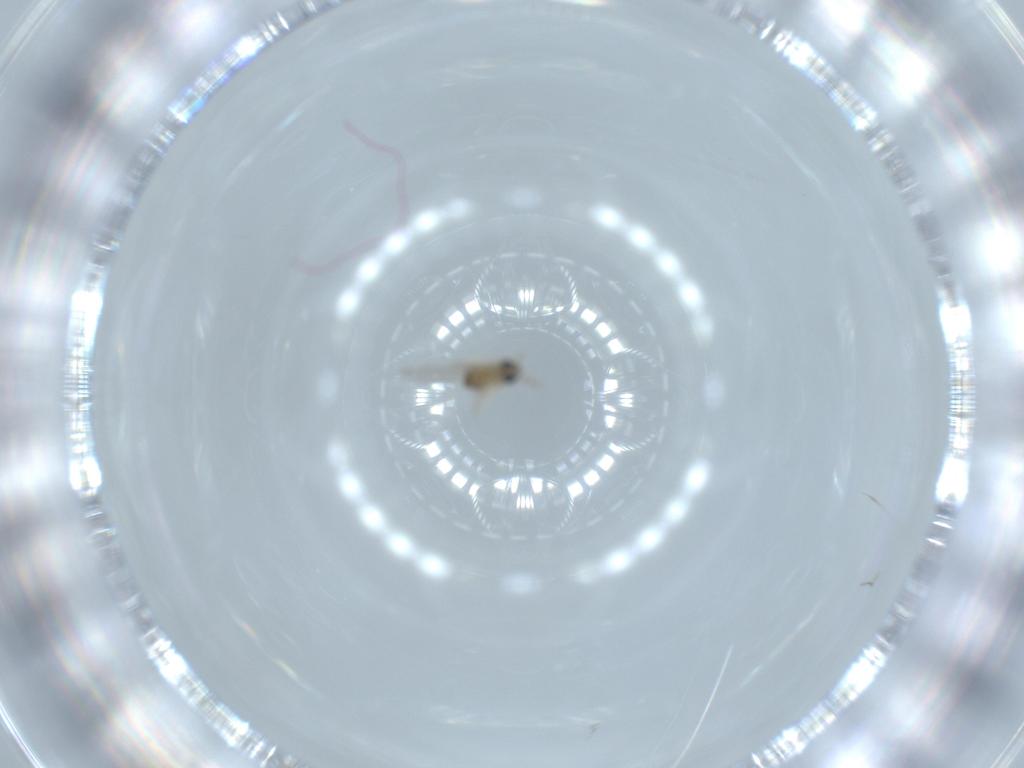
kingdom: Animalia
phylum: Arthropoda
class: Insecta
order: Diptera
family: Cecidomyiidae
